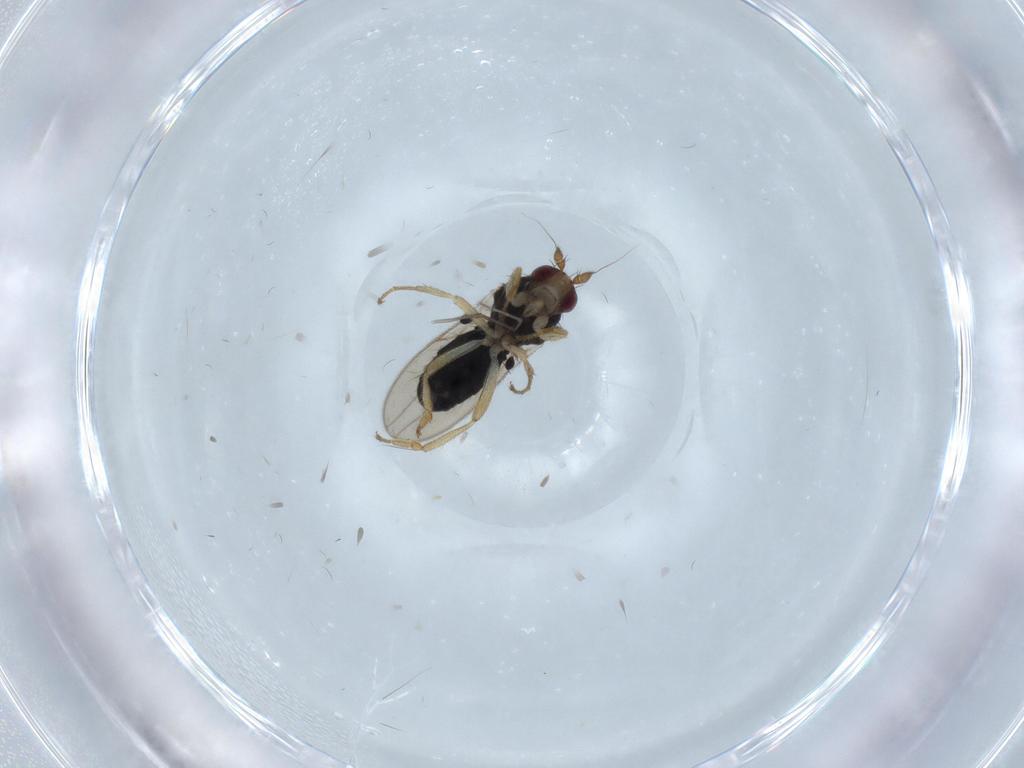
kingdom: Animalia
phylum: Arthropoda
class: Insecta
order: Diptera
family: Sphaeroceridae
